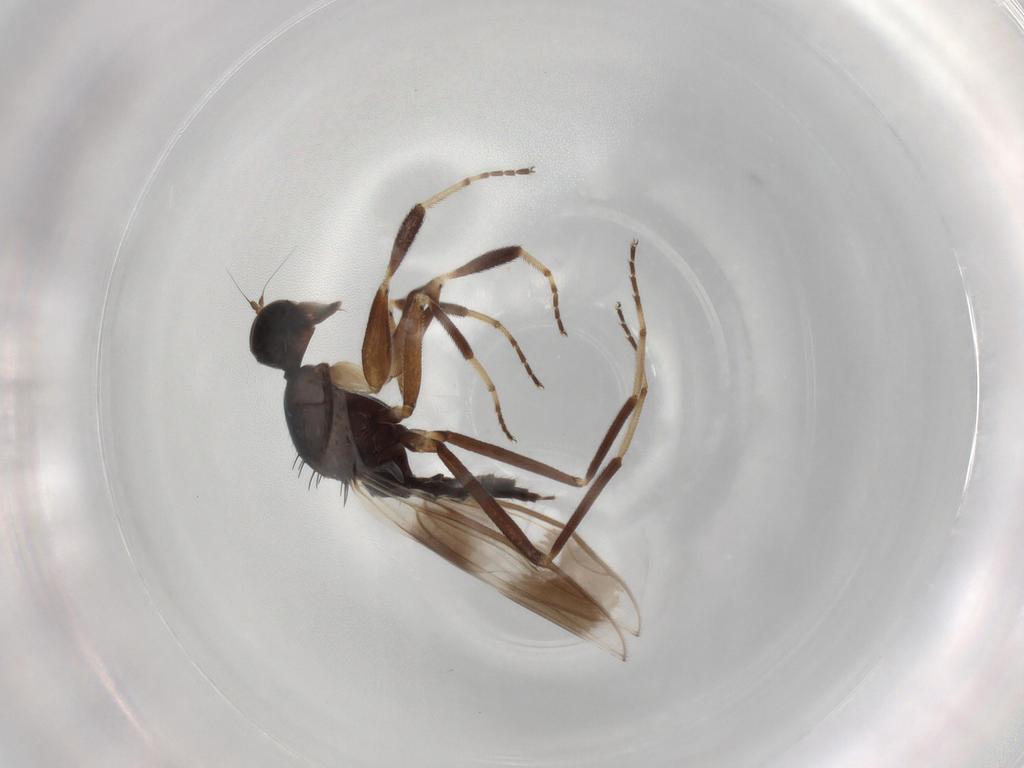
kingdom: Animalia
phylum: Arthropoda
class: Insecta
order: Diptera
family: Hybotidae
